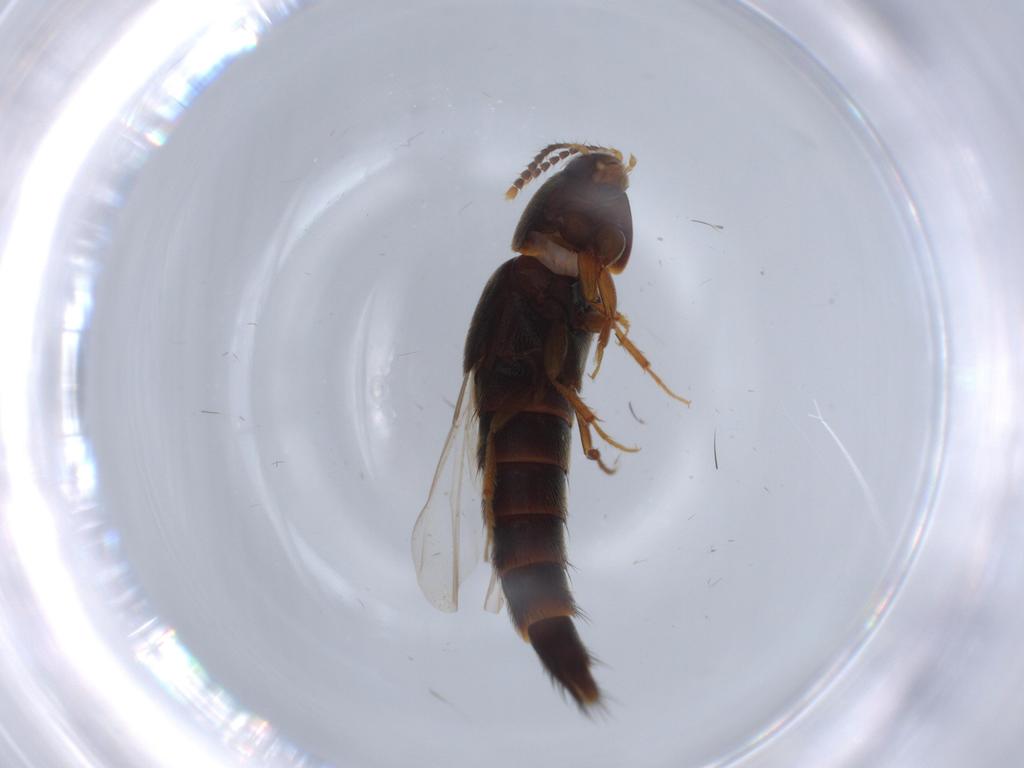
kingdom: Animalia
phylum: Arthropoda
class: Insecta
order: Coleoptera
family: Staphylinidae
